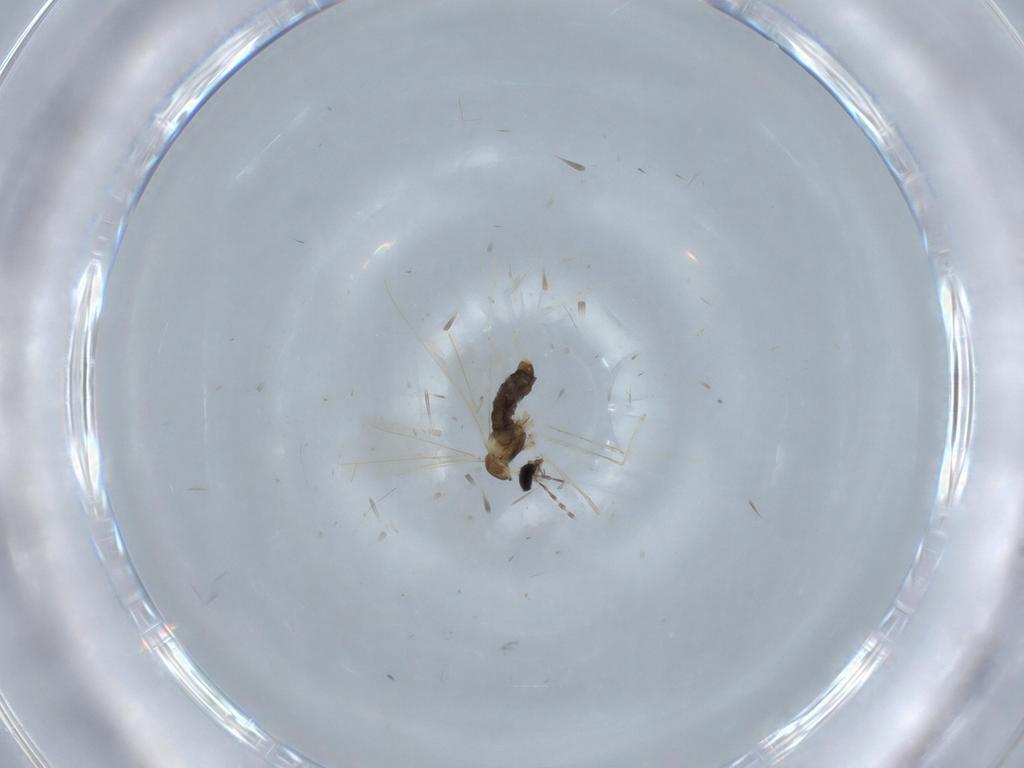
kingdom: Animalia
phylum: Arthropoda
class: Insecta
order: Diptera
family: Cecidomyiidae
